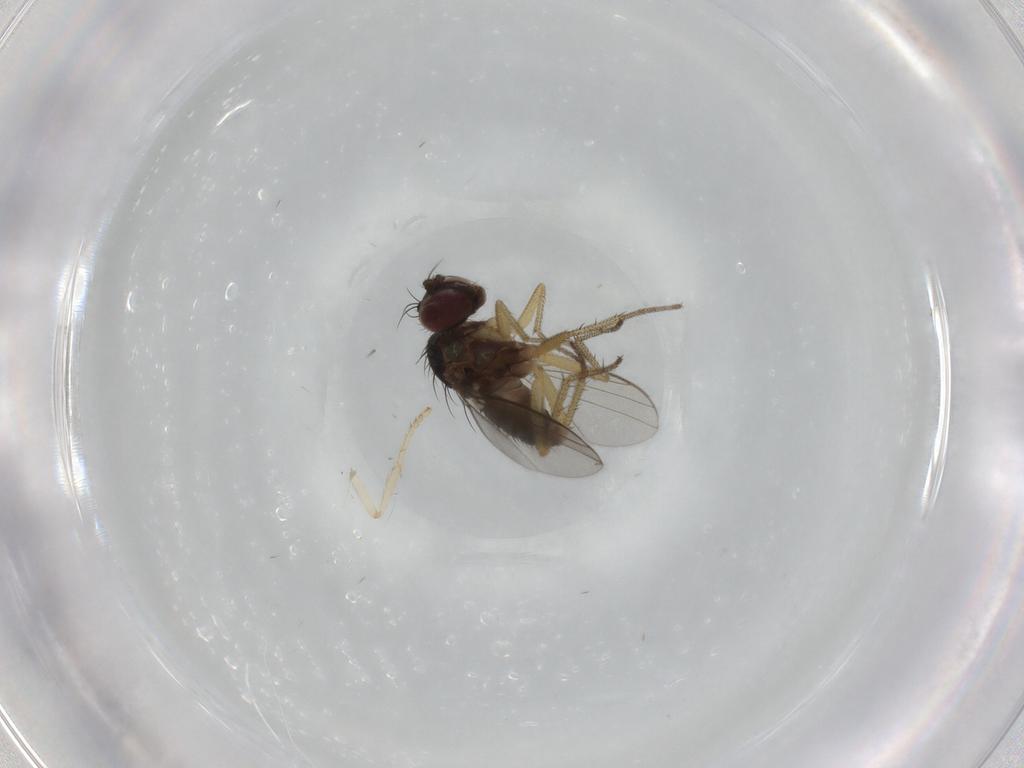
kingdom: Animalia
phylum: Arthropoda
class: Insecta
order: Diptera
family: Dolichopodidae
